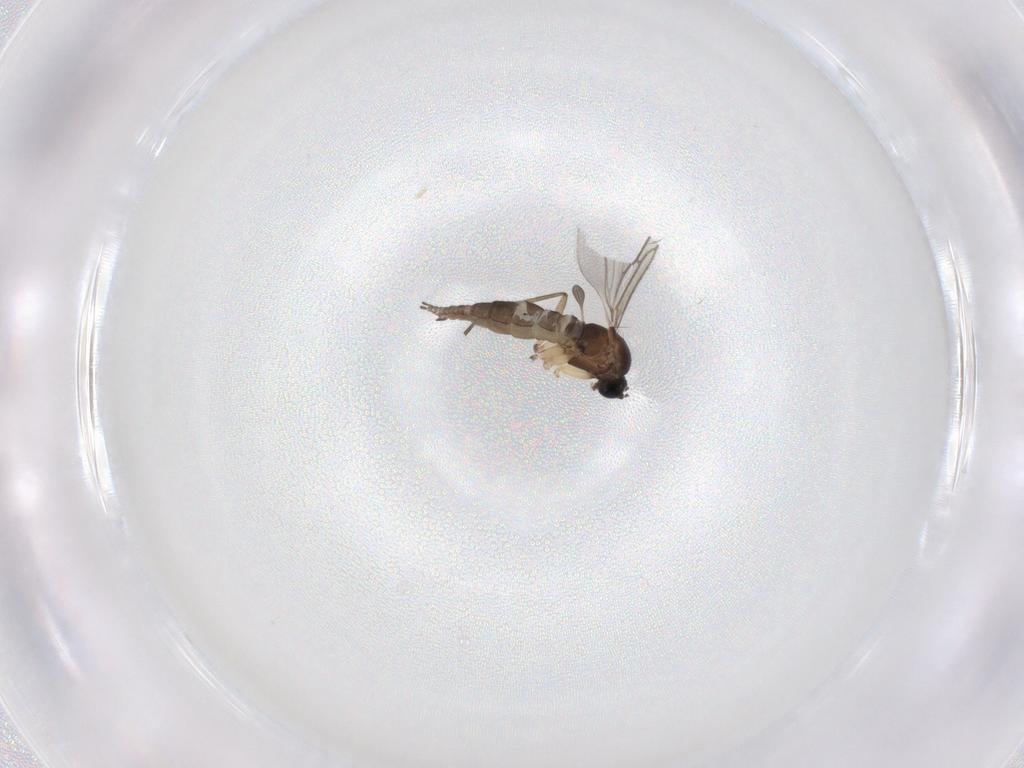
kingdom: Animalia
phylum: Arthropoda
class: Insecta
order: Diptera
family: Sciaridae
